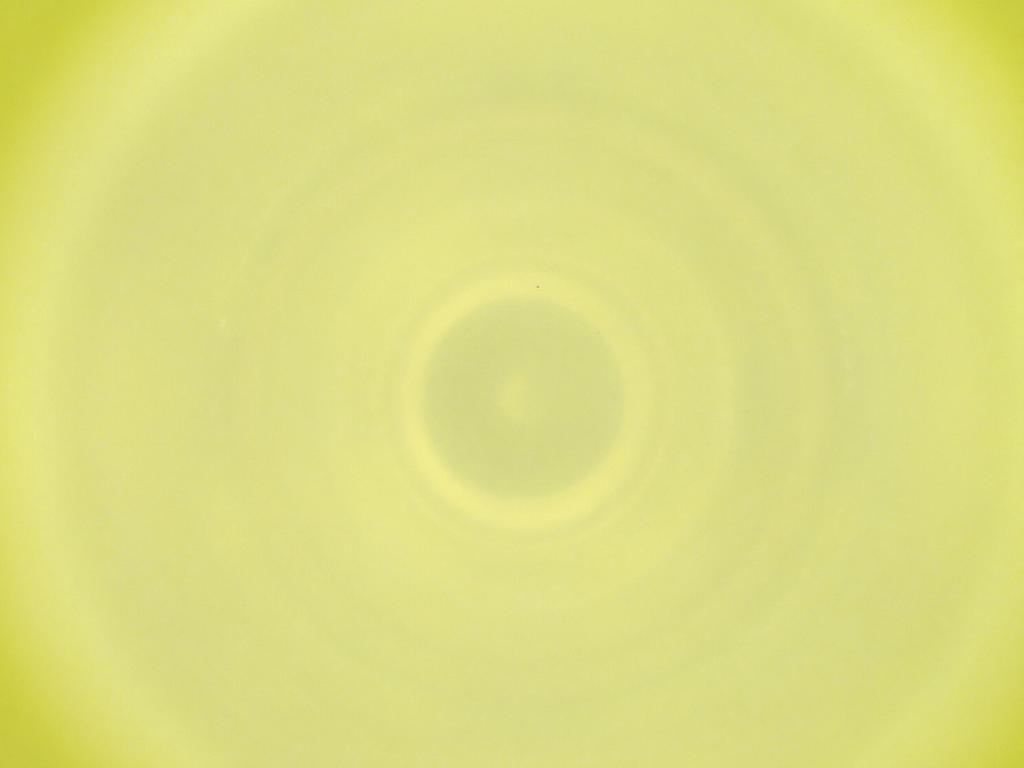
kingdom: Animalia
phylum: Arthropoda
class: Insecta
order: Diptera
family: Cecidomyiidae
